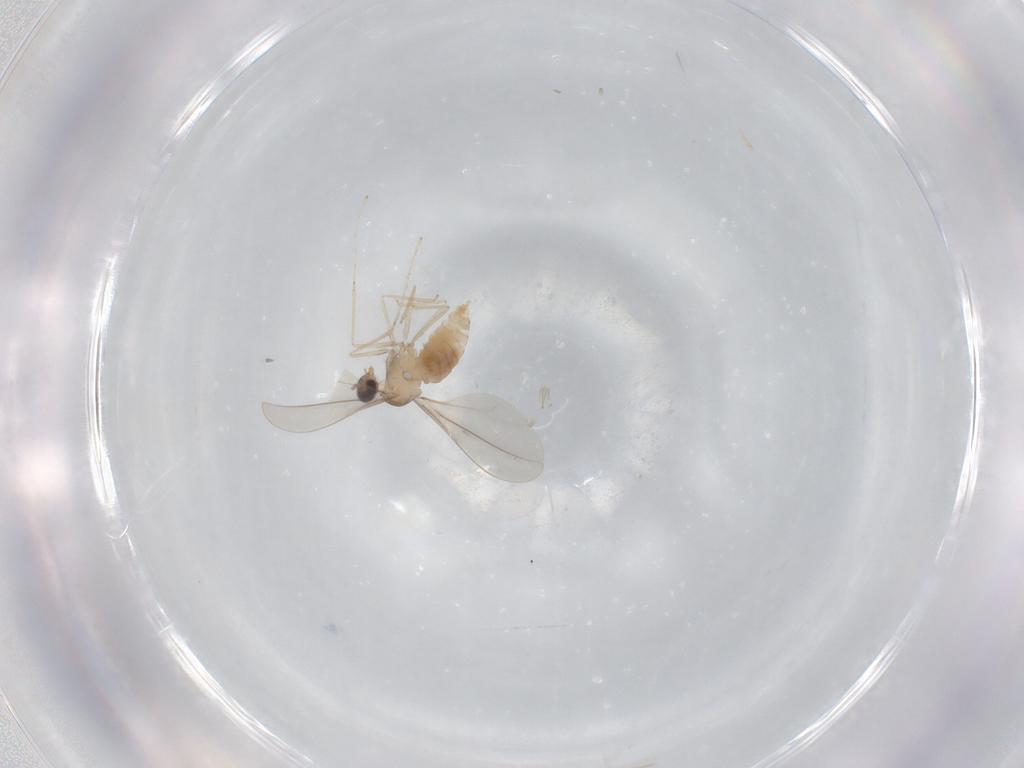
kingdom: Animalia
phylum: Arthropoda
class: Insecta
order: Diptera
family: Cecidomyiidae
